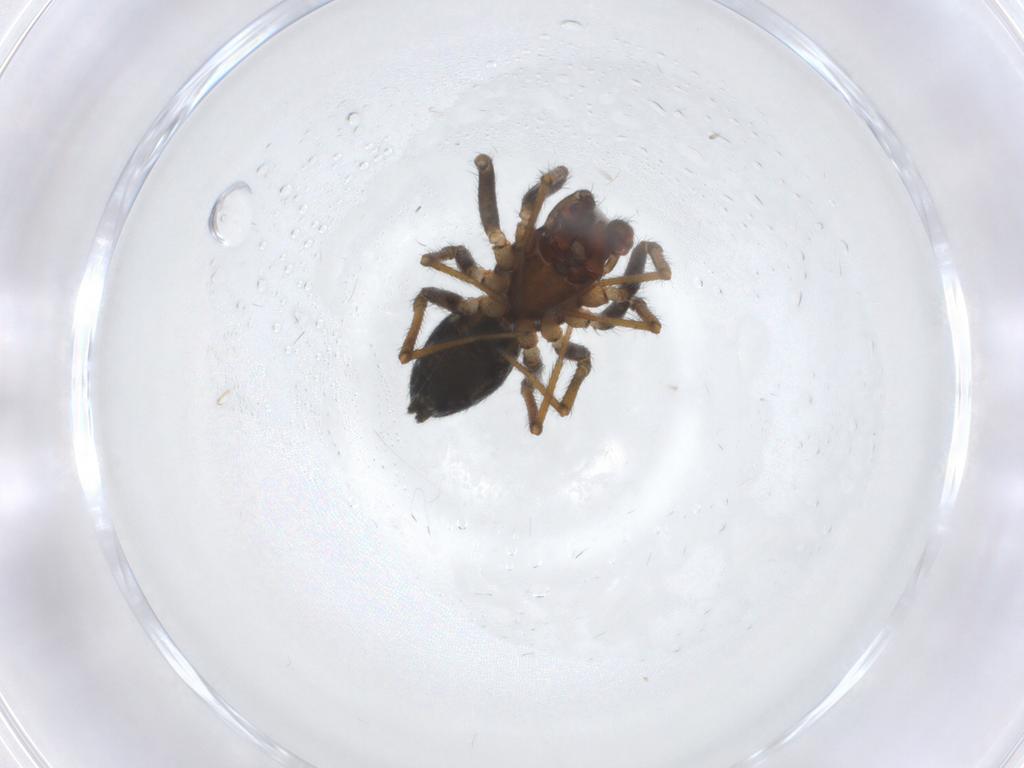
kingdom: Animalia
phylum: Arthropoda
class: Arachnida
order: Araneae
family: Theridiidae
